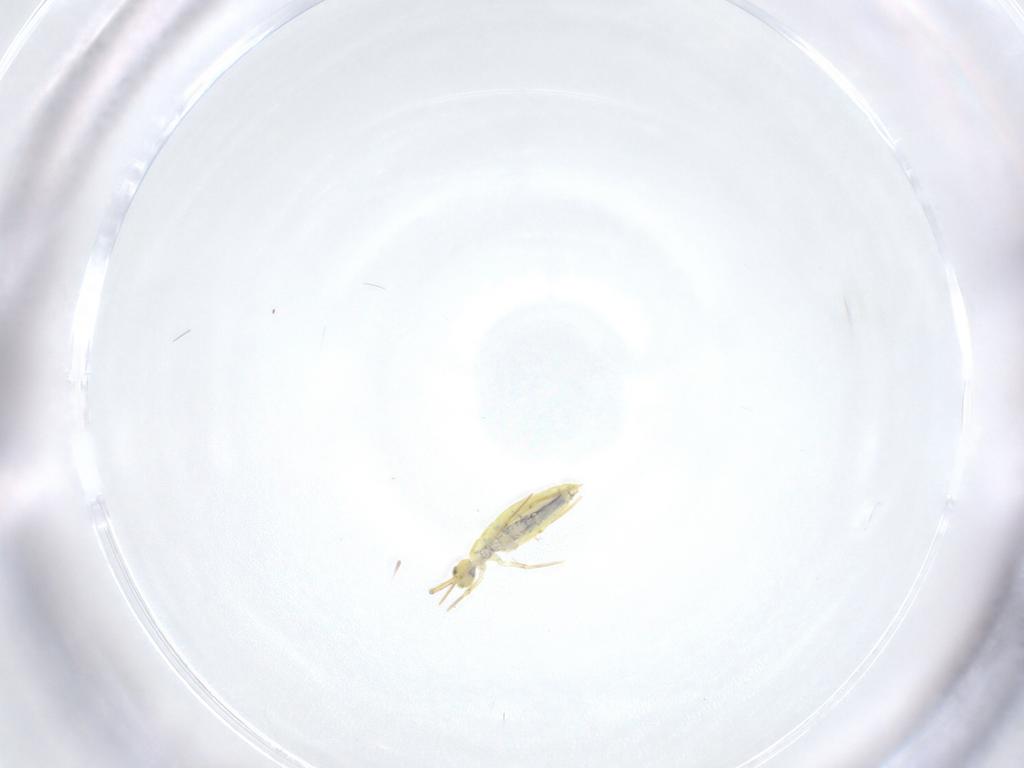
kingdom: Animalia
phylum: Arthropoda
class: Collembola
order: Entomobryomorpha
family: Entomobryidae
